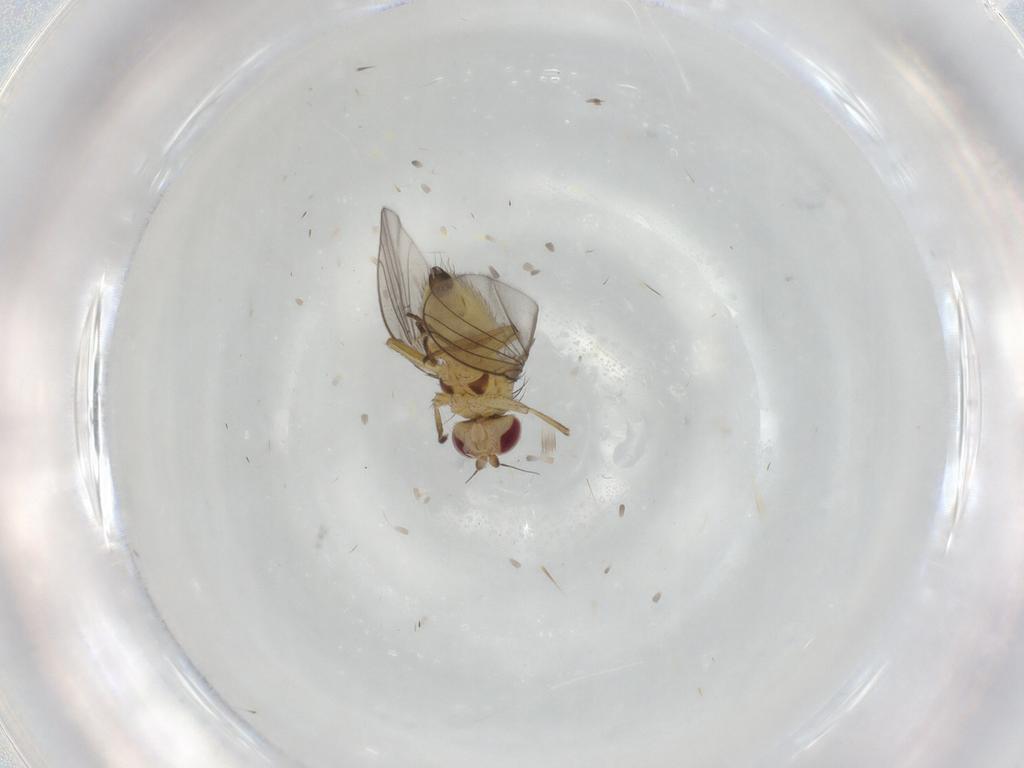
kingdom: Animalia
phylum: Arthropoda
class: Insecta
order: Diptera
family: Agromyzidae
